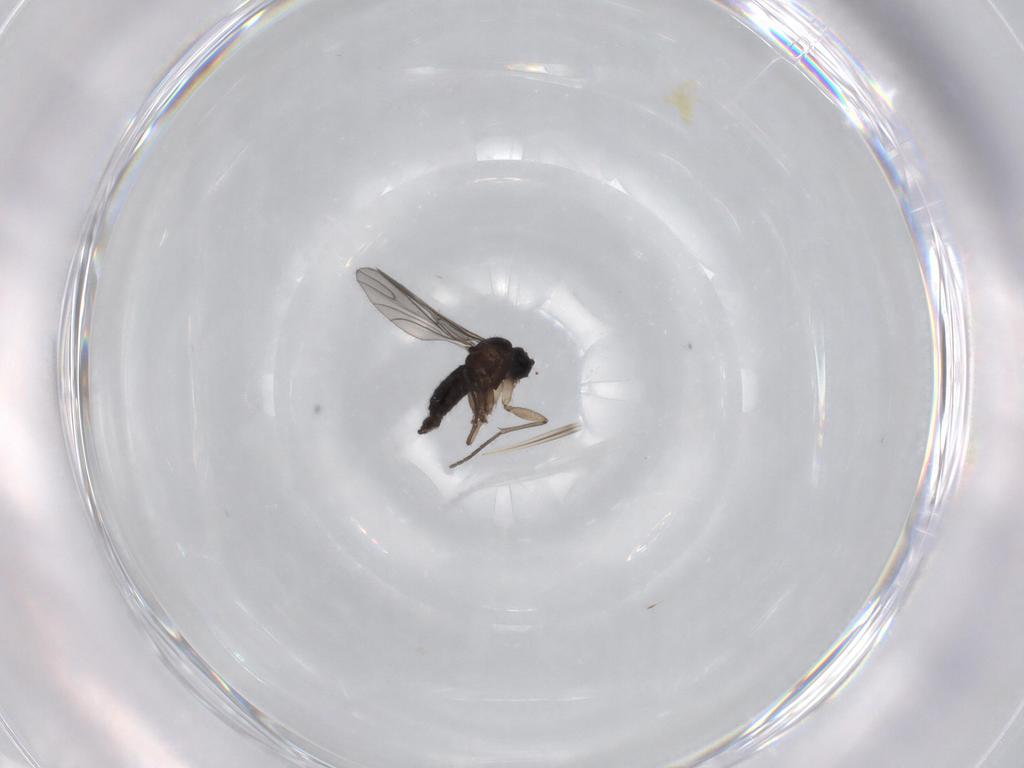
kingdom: Animalia
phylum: Arthropoda
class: Insecta
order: Diptera
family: Sciaridae
